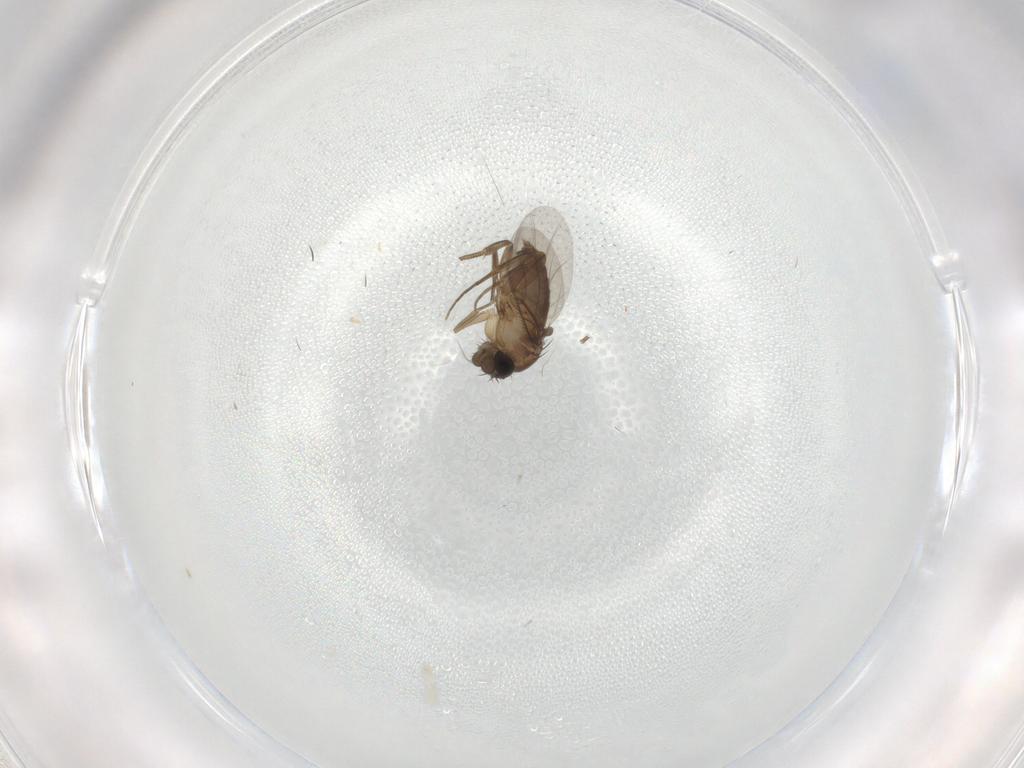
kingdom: Animalia
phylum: Arthropoda
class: Insecta
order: Diptera
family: Phoridae
